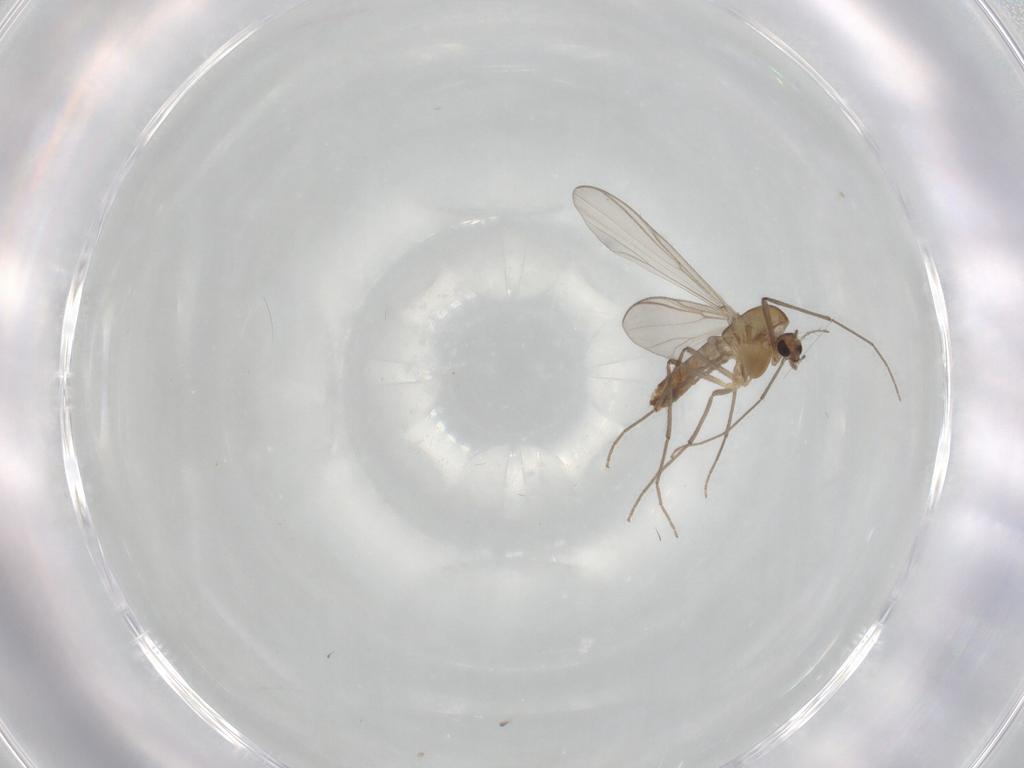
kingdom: Animalia
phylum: Arthropoda
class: Insecta
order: Diptera
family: Chironomidae
